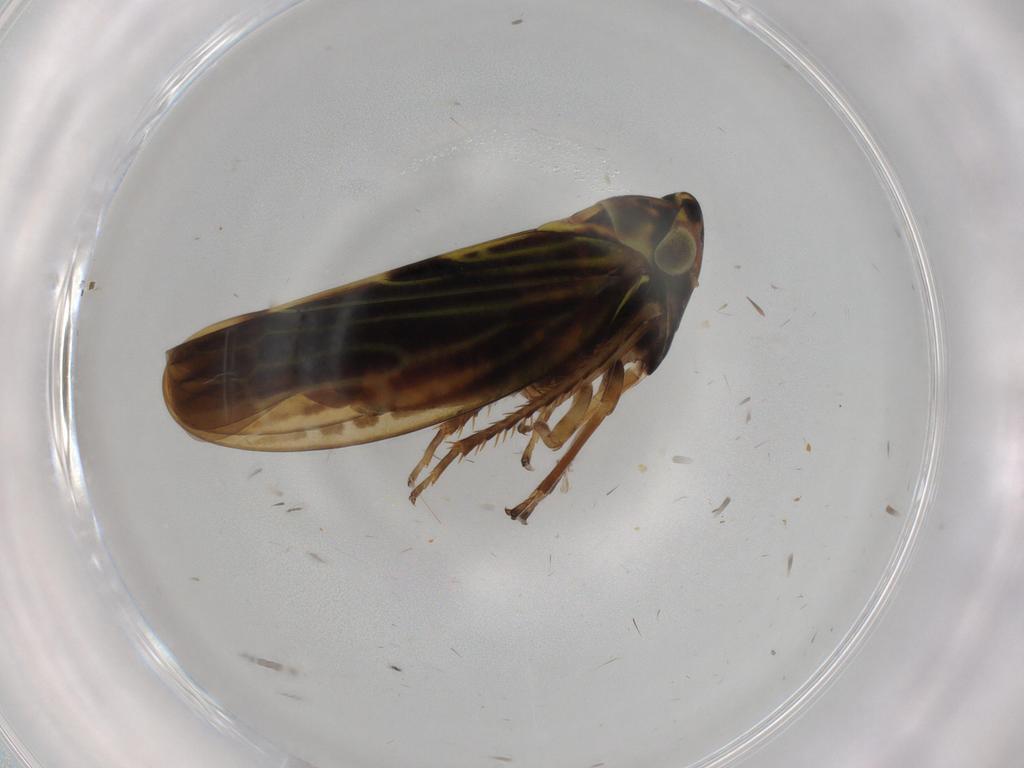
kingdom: Animalia
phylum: Arthropoda
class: Insecta
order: Hemiptera
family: Cicadellidae
